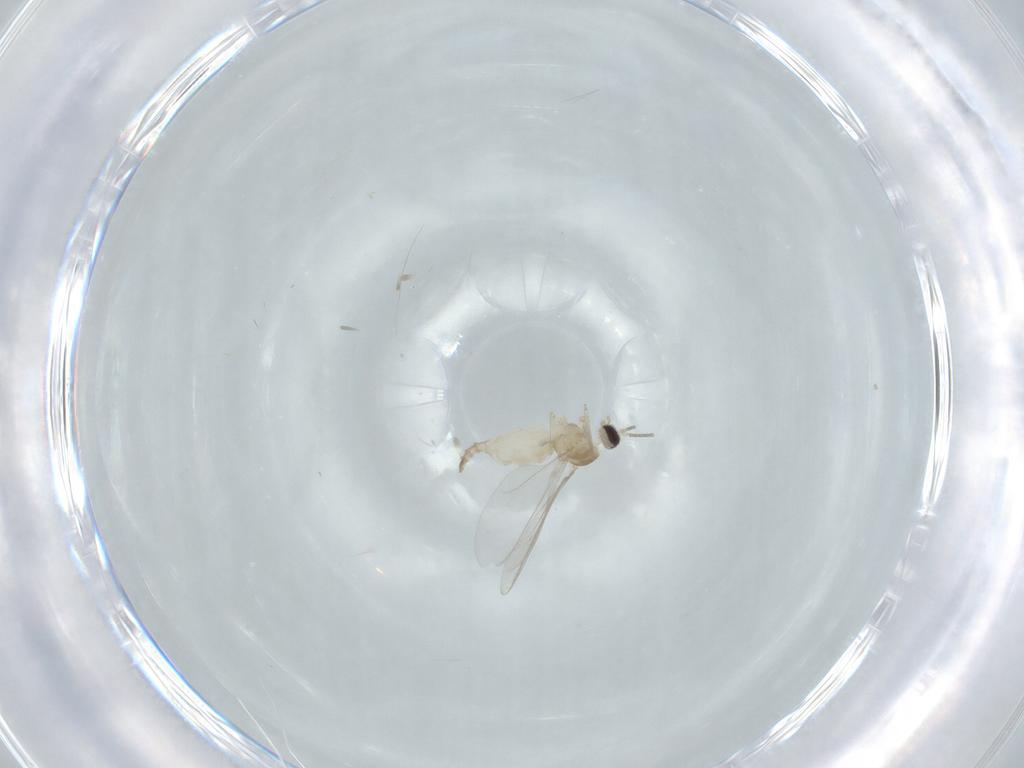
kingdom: Animalia
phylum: Arthropoda
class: Insecta
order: Diptera
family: Cecidomyiidae
